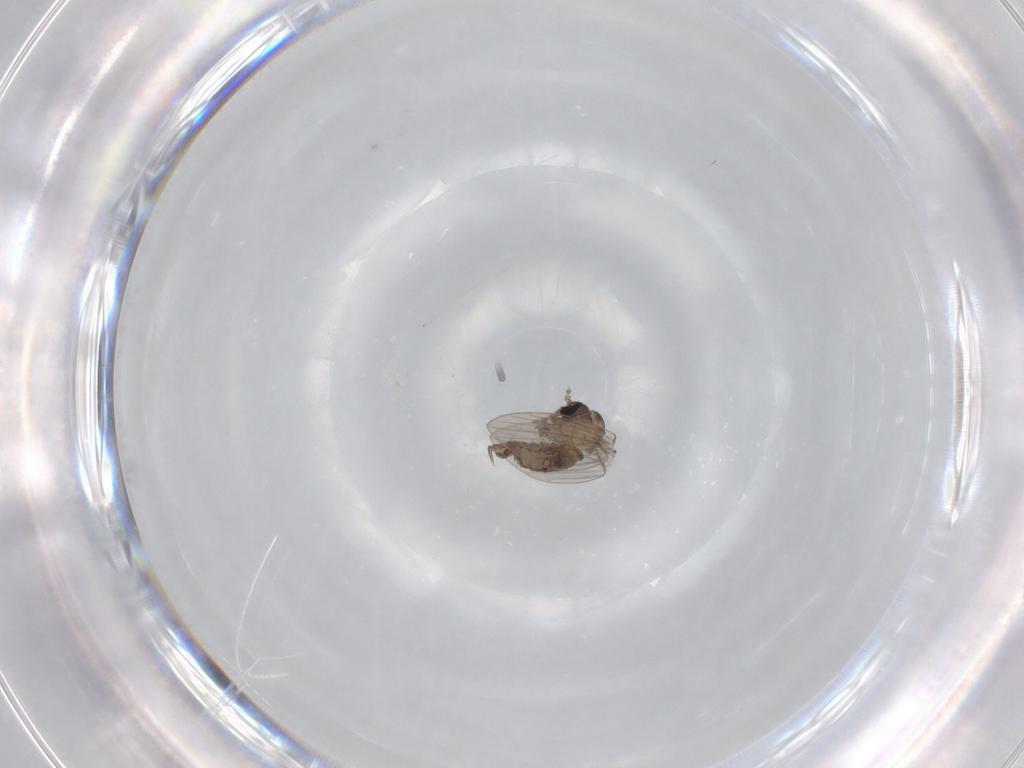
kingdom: Animalia
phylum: Arthropoda
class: Insecta
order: Diptera
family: Psychodidae
